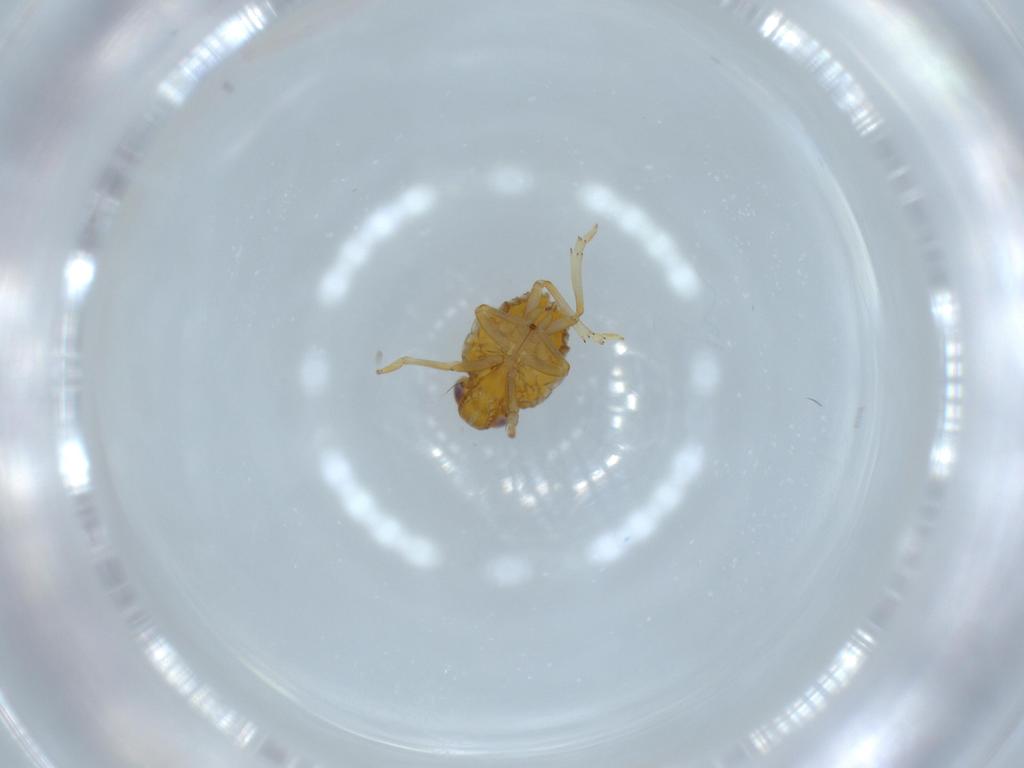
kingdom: Animalia
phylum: Arthropoda
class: Insecta
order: Hemiptera
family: Issidae
